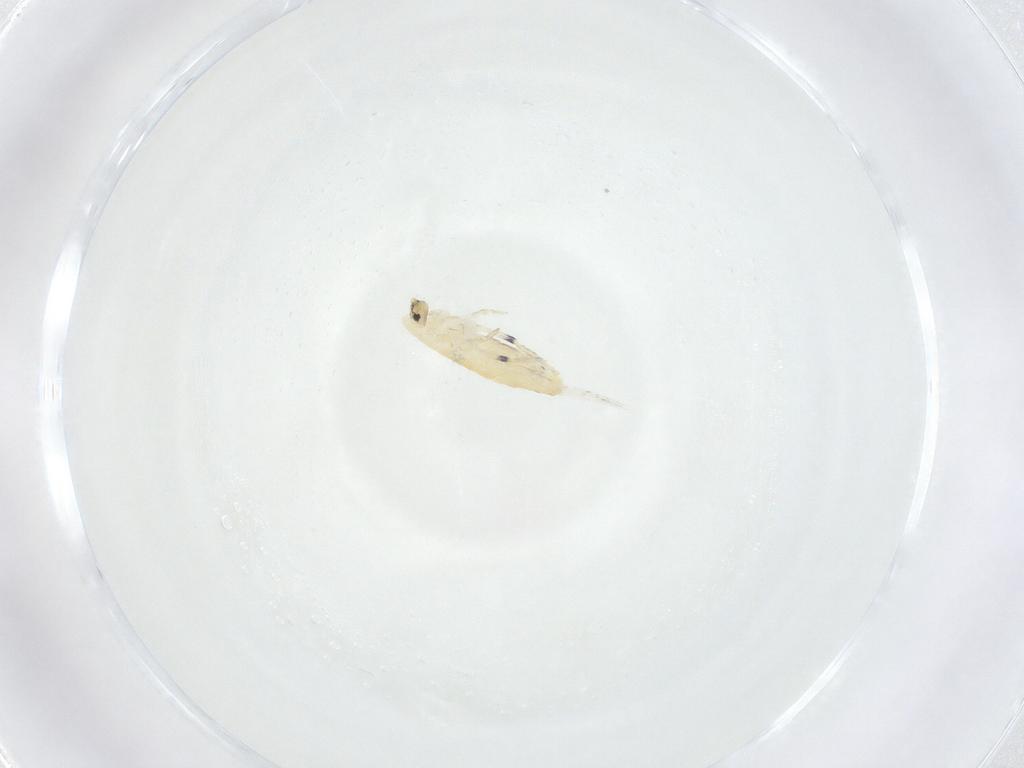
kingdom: Animalia
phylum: Arthropoda
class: Collembola
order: Entomobryomorpha
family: Entomobryidae
